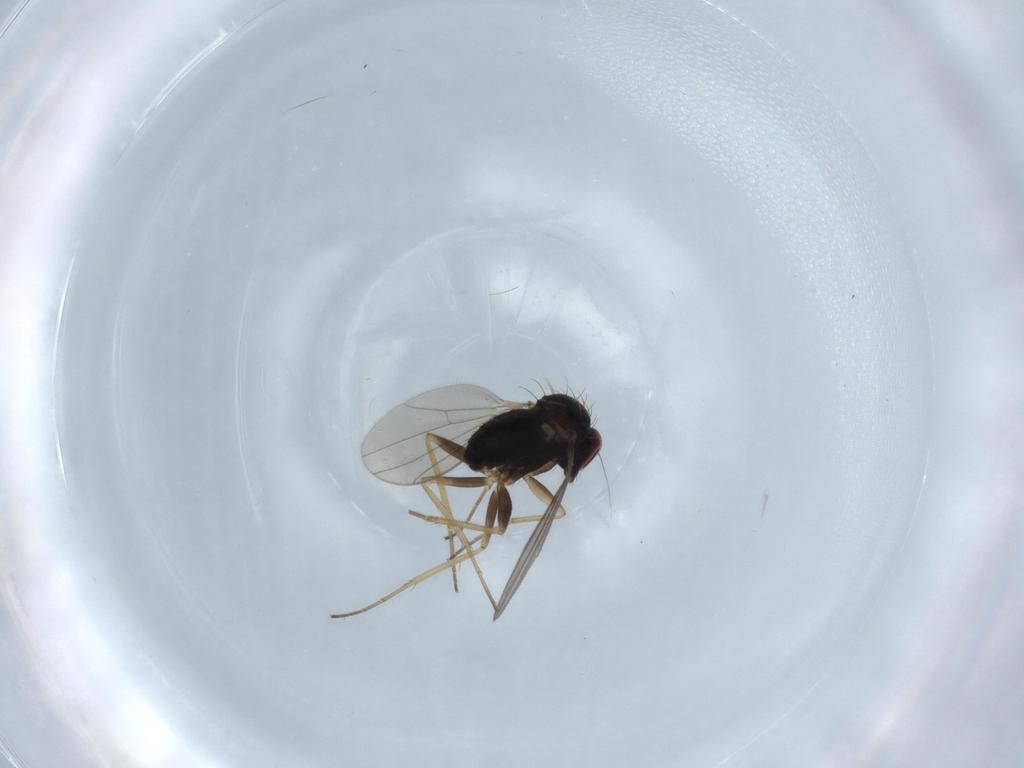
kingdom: Animalia
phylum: Arthropoda
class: Insecta
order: Diptera
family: Dolichopodidae
